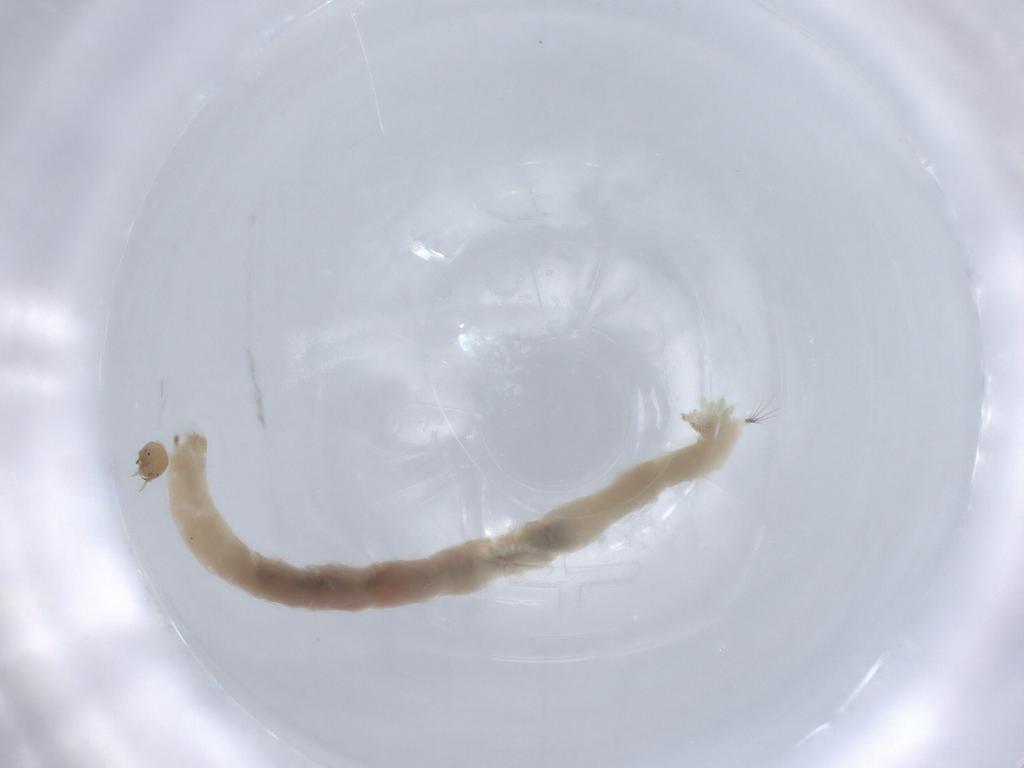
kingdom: Animalia
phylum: Arthropoda
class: Insecta
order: Diptera
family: Chironomidae
